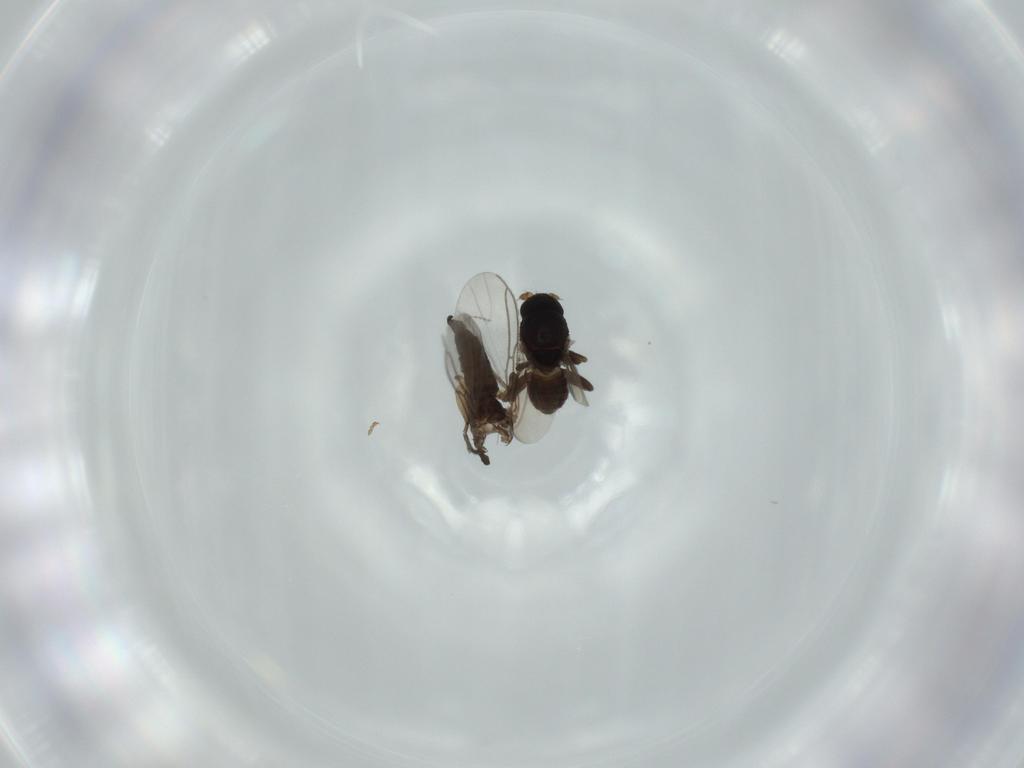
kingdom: Animalia
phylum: Arthropoda
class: Insecta
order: Diptera
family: Sciaridae
